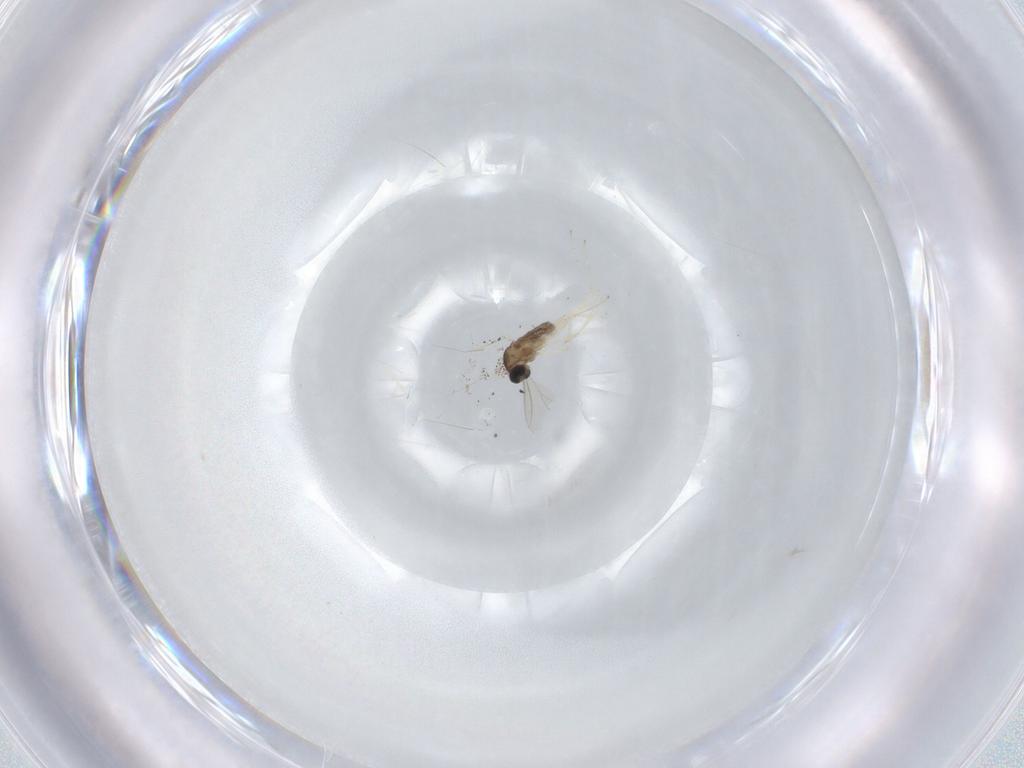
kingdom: Animalia
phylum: Arthropoda
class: Insecta
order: Diptera
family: Cecidomyiidae
